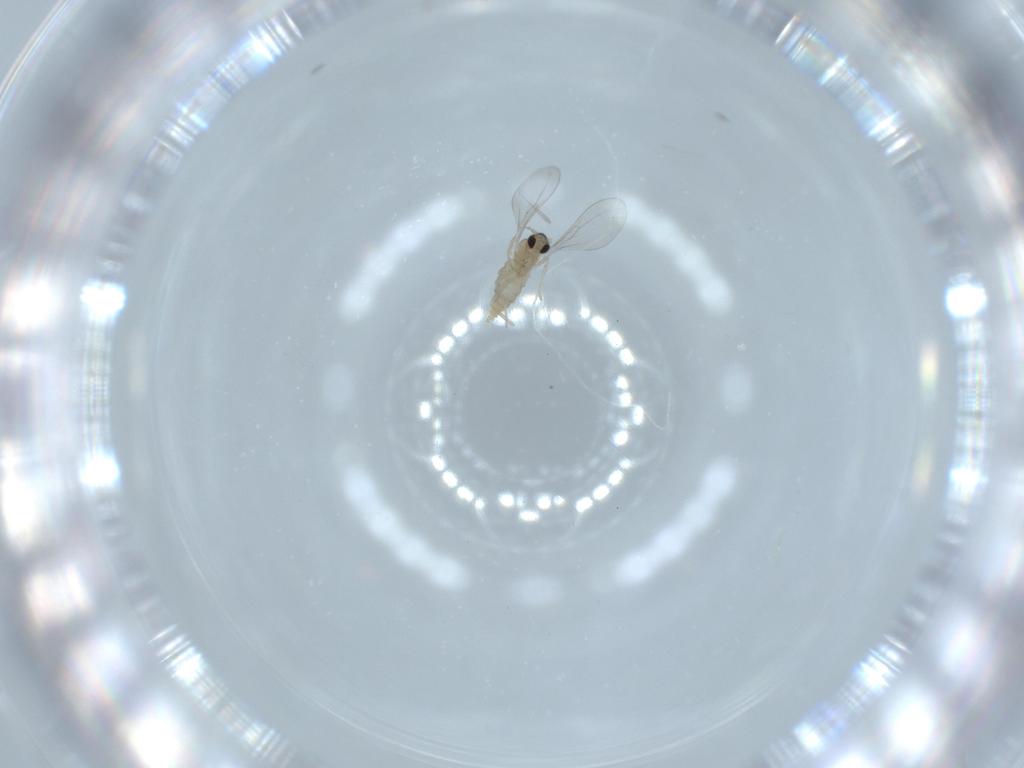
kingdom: Animalia
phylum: Arthropoda
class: Insecta
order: Diptera
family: Cecidomyiidae
